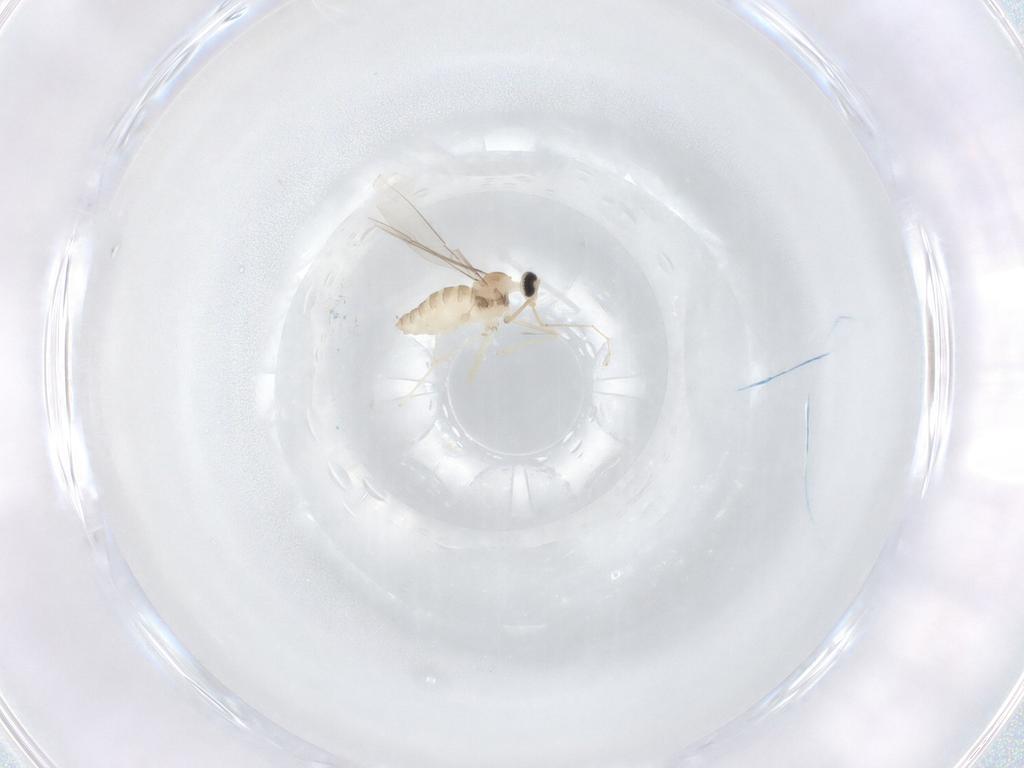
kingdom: Animalia
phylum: Arthropoda
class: Insecta
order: Diptera
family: Cecidomyiidae
